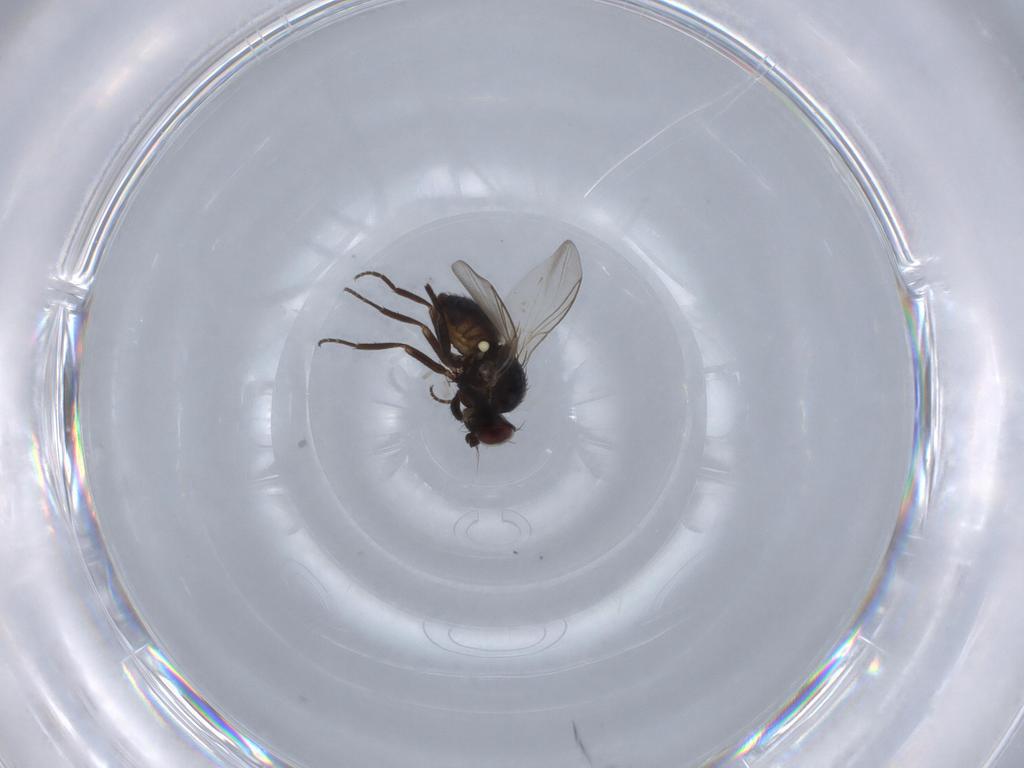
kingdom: Animalia
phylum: Arthropoda
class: Insecta
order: Diptera
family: Agromyzidae
